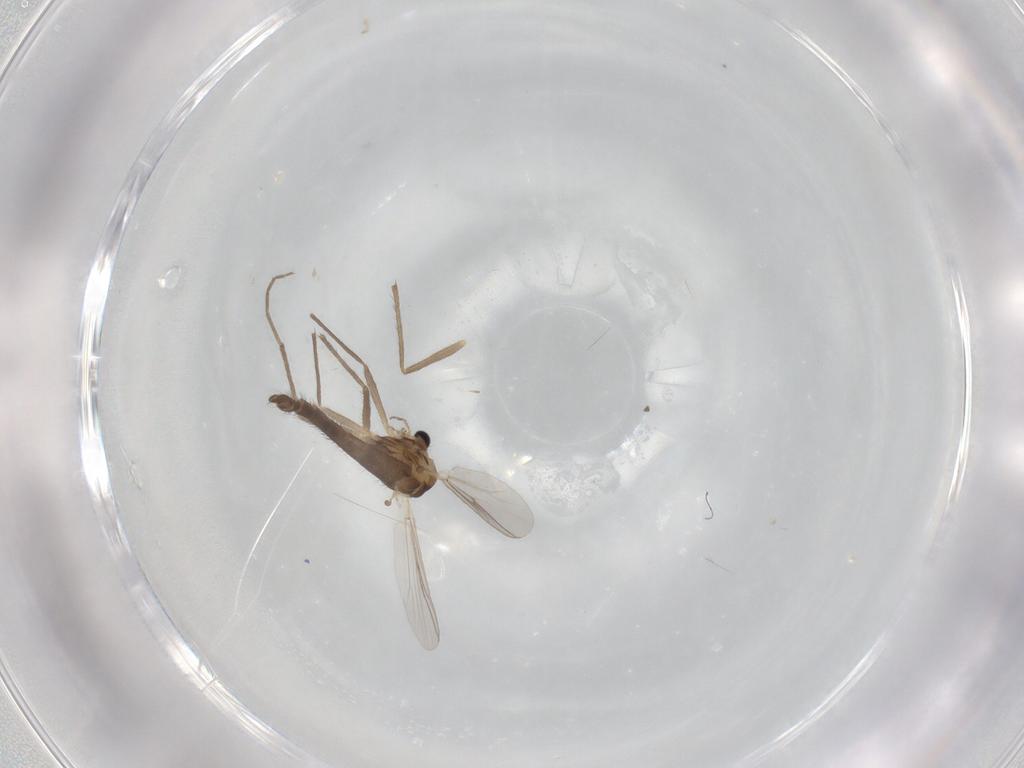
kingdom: Animalia
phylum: Arthropoda
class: Insecta
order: Diptera
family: Chironomidae
